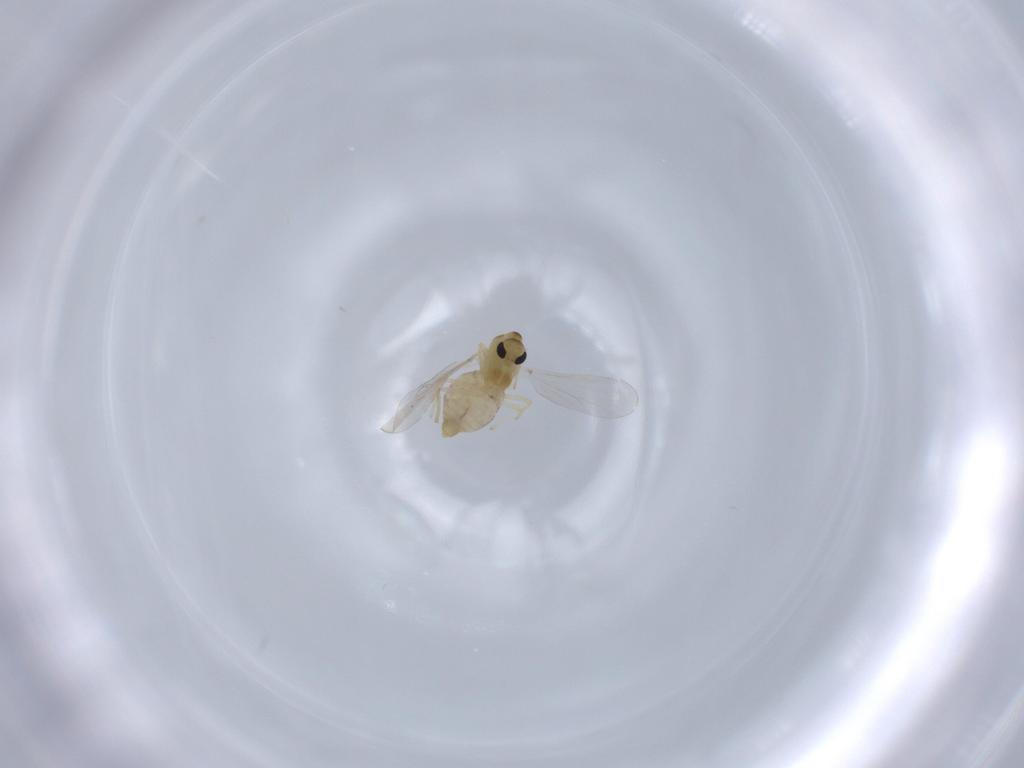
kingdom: Animalia
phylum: Arthropoda
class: Insecta
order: Diptera
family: Chironomidae
